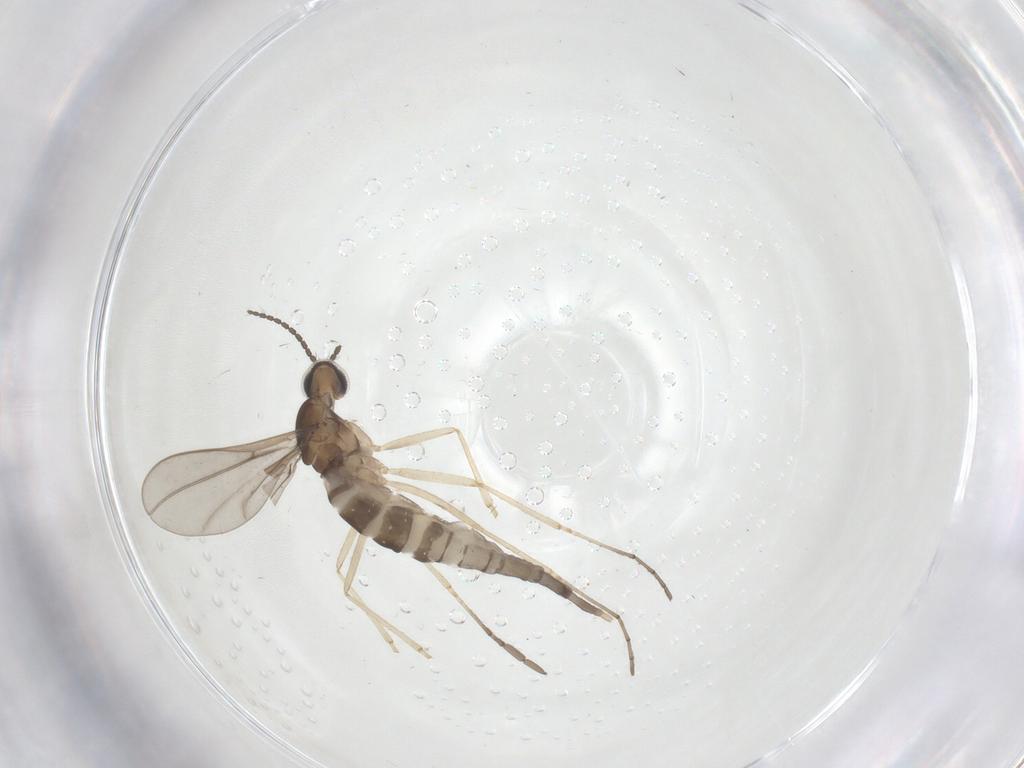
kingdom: Animalia
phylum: Arthropoda
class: Insecta
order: Diptera
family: Cecidomyiidae
